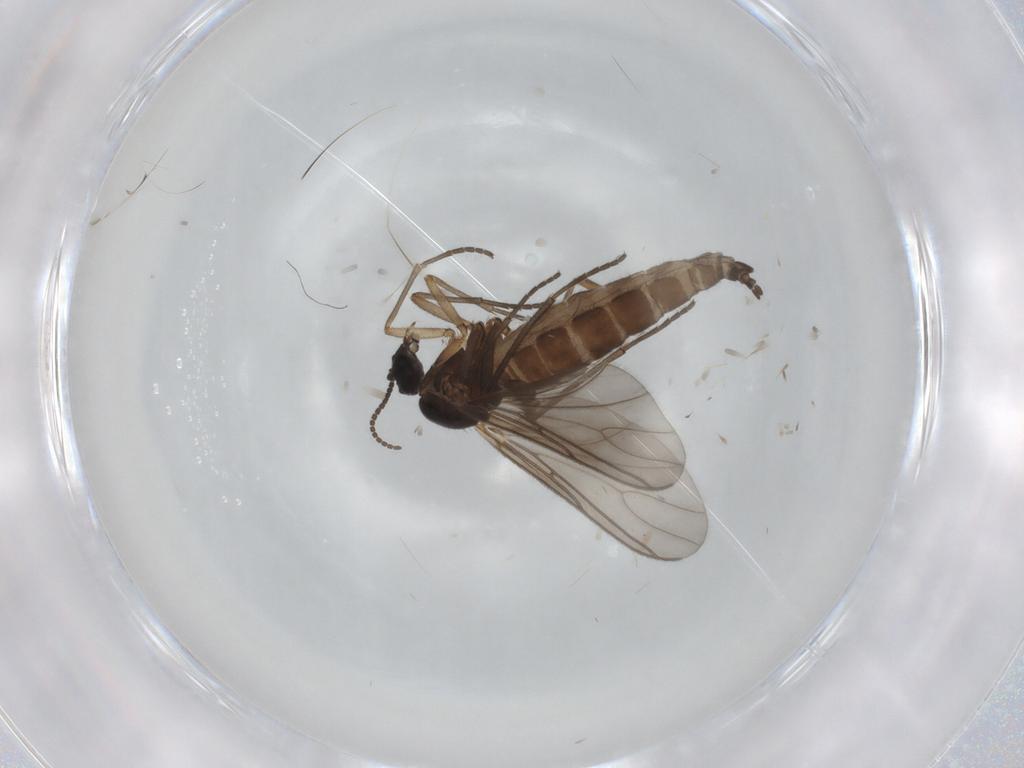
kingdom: Animalia
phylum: Arthropoda
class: Insecta
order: Diptera
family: Sciaridae
